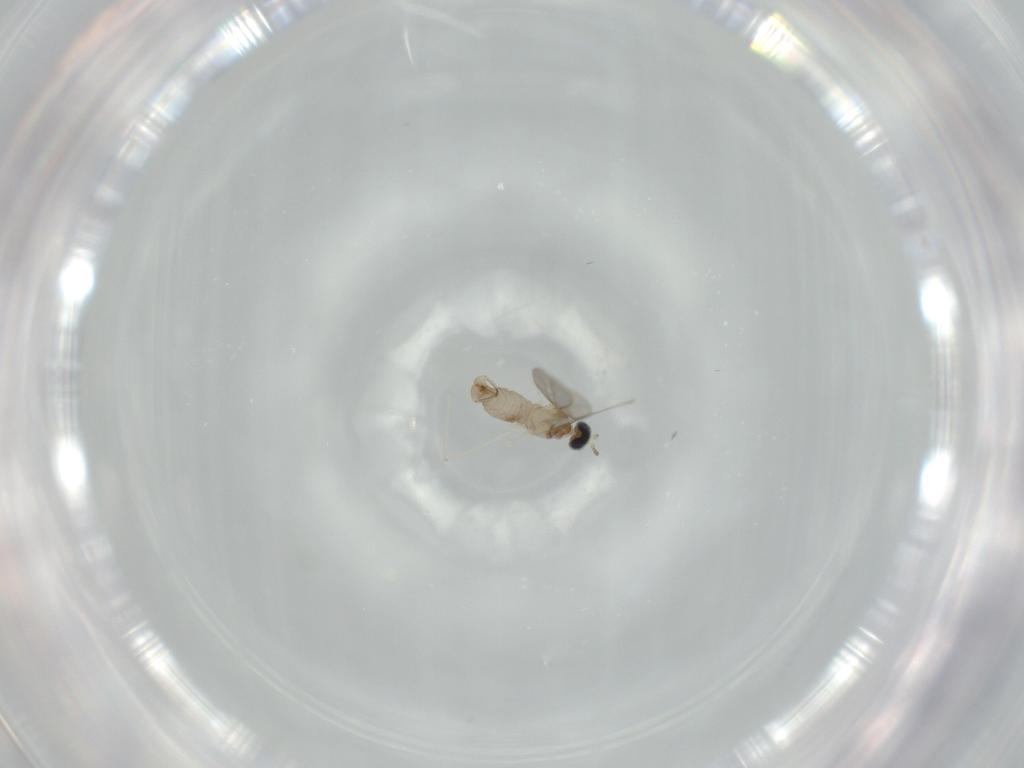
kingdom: Animalia
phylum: Arthropoda
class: Insecta
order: Diptera
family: Cecidomyiidae
